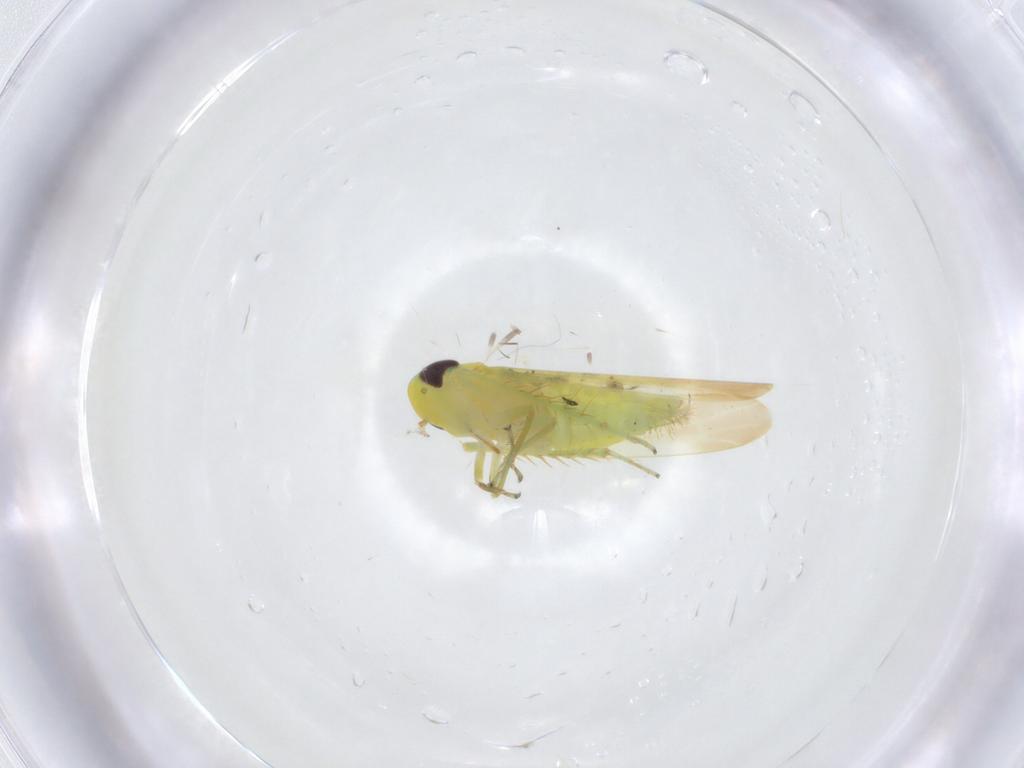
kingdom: Animalia
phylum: Arthropoda
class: Insecta
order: Hemiptera
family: Cicadellidae
